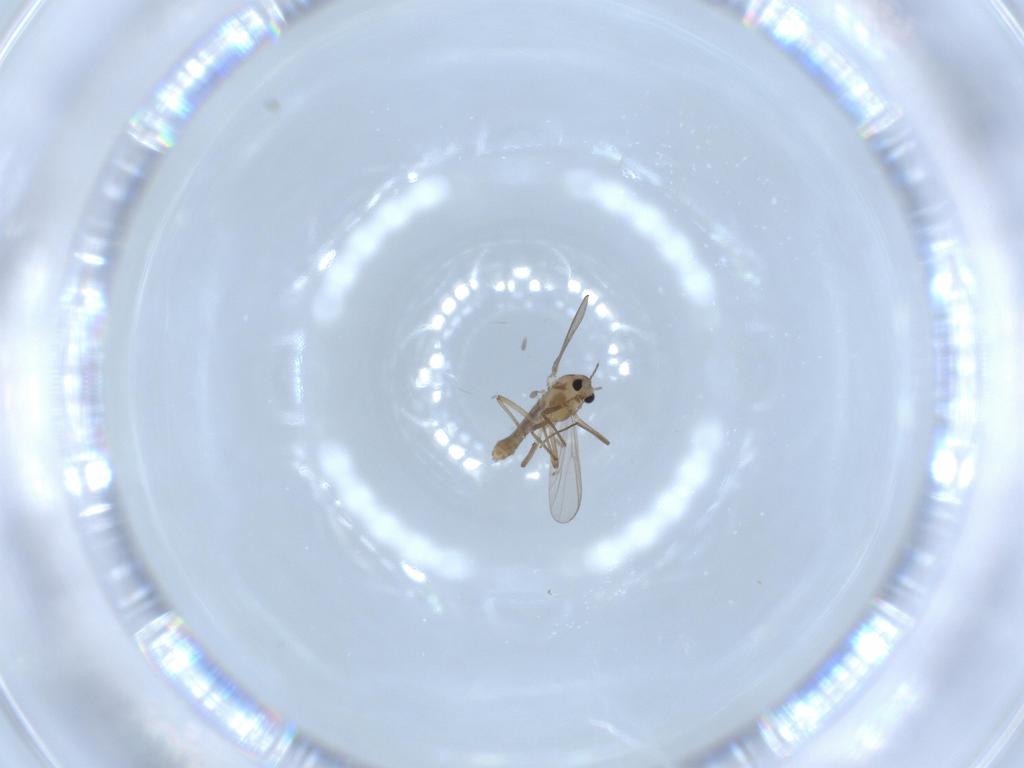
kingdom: Animalia
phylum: Arthropoda
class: Insecta
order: Diptera
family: Chironomidae
